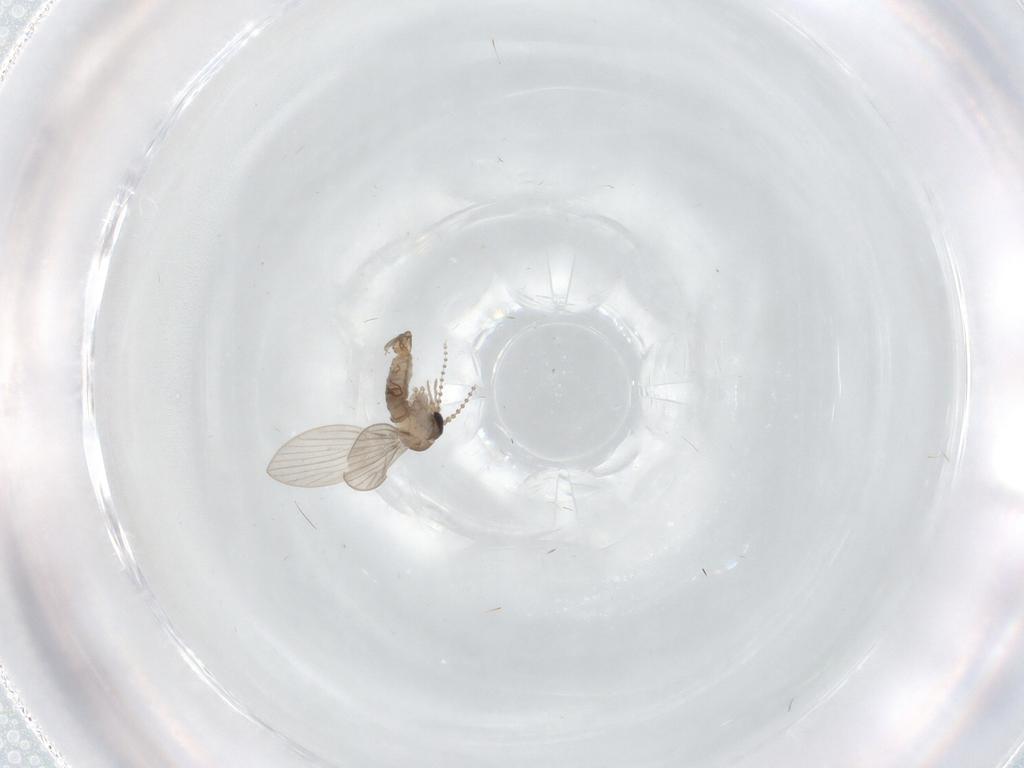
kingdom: Animalia
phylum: Arthropoda
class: Insecta
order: Diptera
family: Psychodidae
